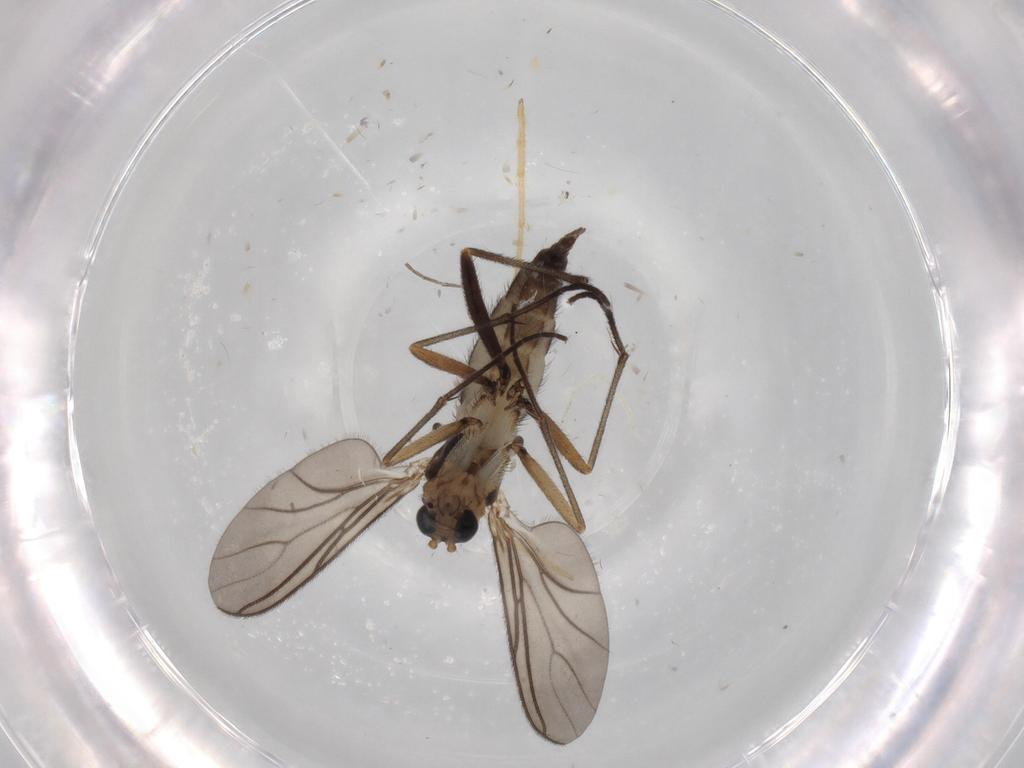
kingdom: Animalia
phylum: Arthropoda
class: Insecta
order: Diptera
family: Sciaridae
